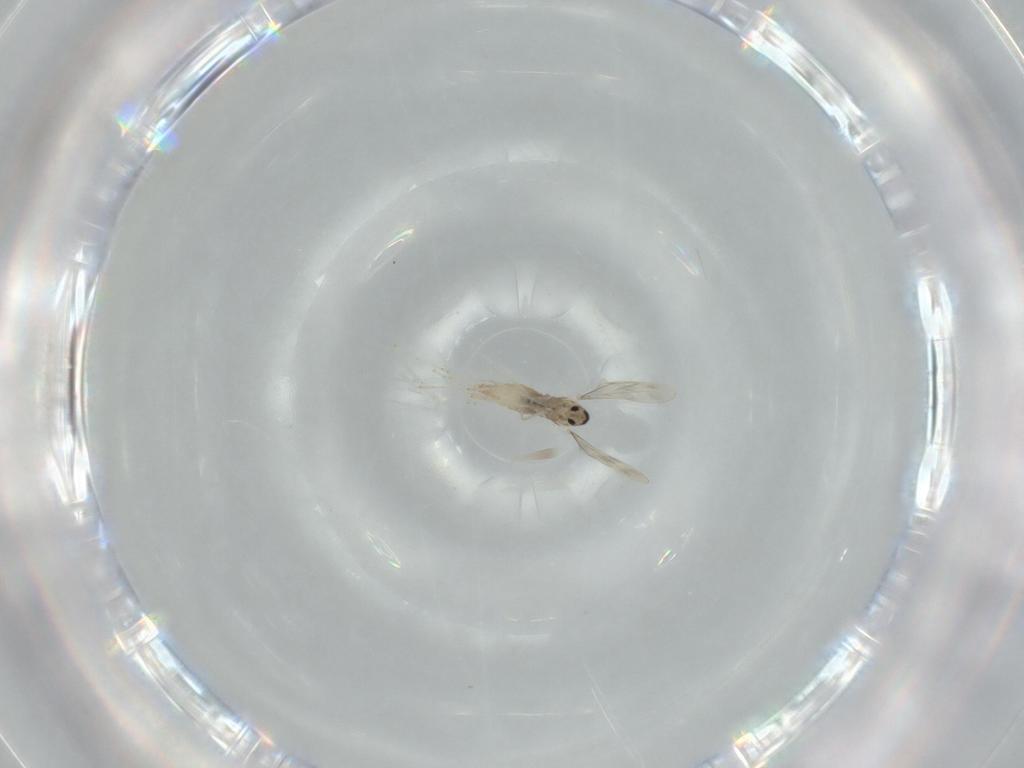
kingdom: Animalia
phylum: Arthropoda
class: Insecta
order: Diptera
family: Cecidomyiidae
